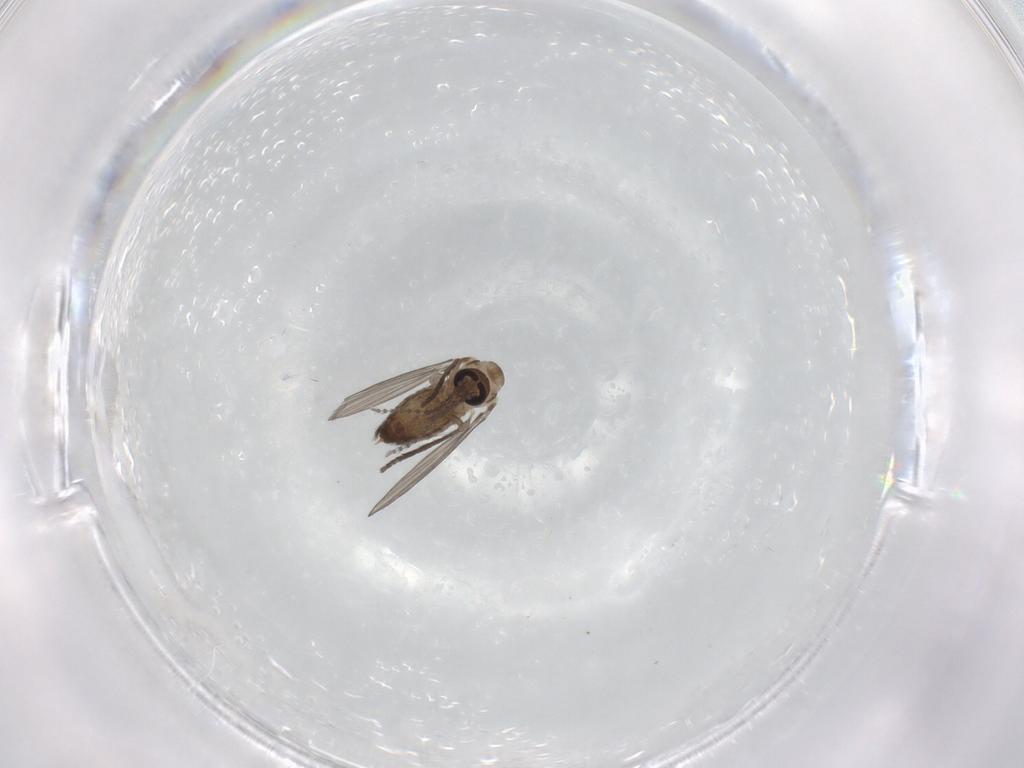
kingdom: Animalia
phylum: Arthropoda
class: Insecta
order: Diptera
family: Psychodidae
